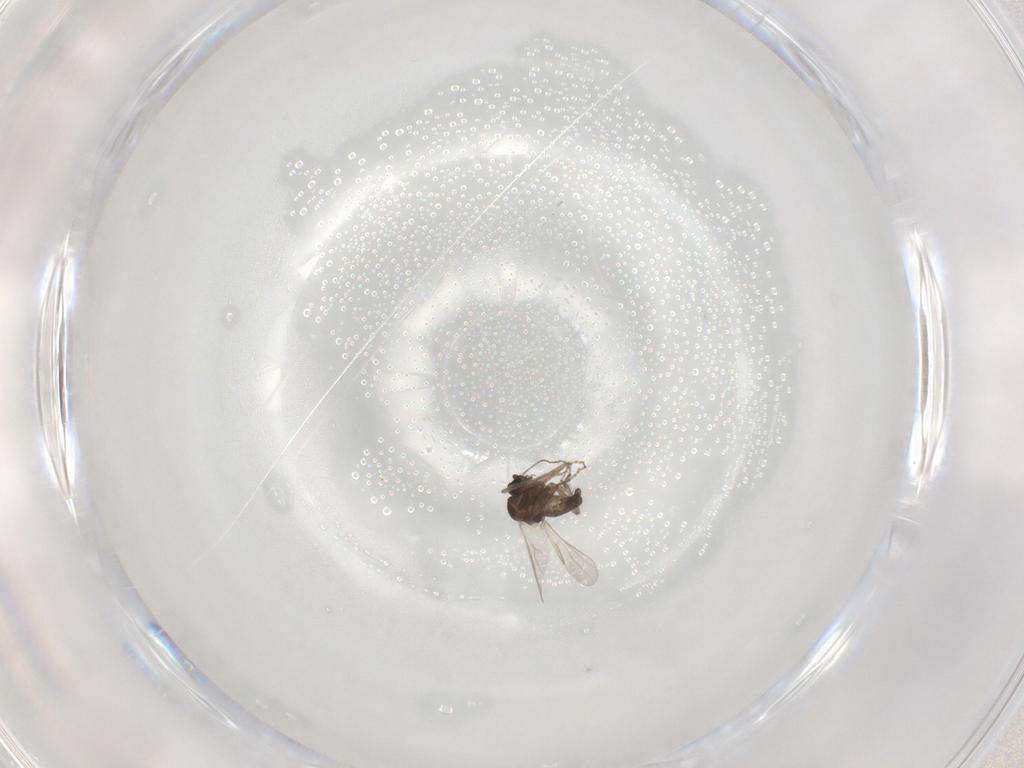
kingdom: Animalia
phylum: Arthropoda
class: Insecta
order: Diptera
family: Ceratopogonidae
